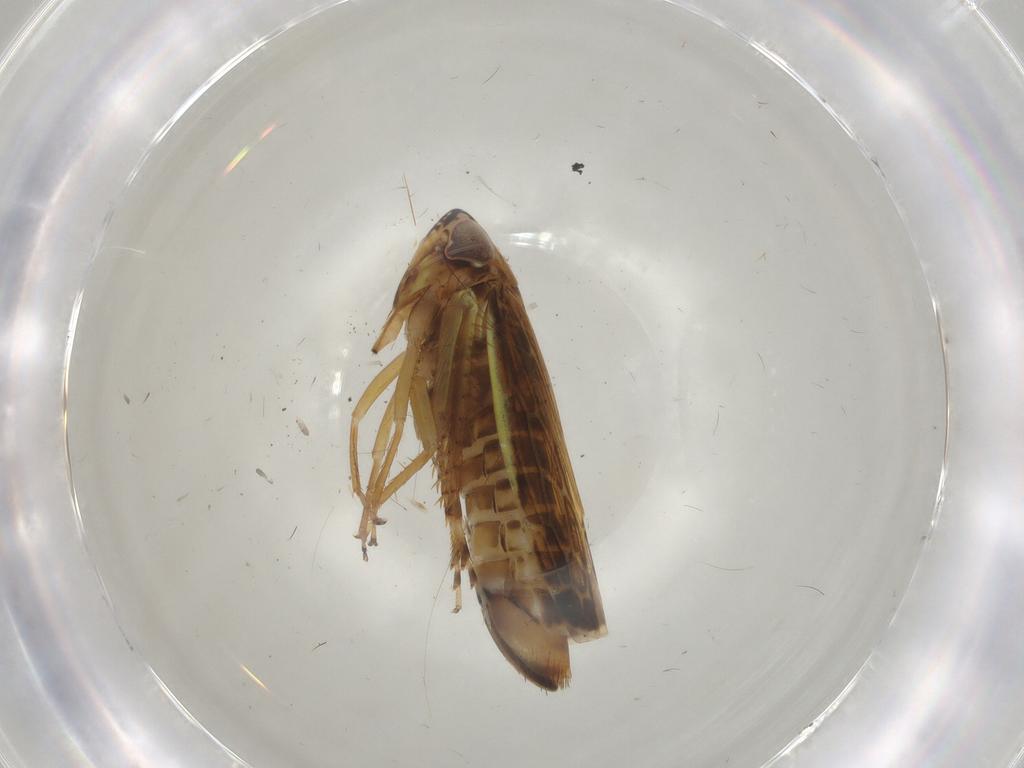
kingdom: Animalia
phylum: Arthropoda
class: Insecta
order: Hemiptera
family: Cicadellidae
